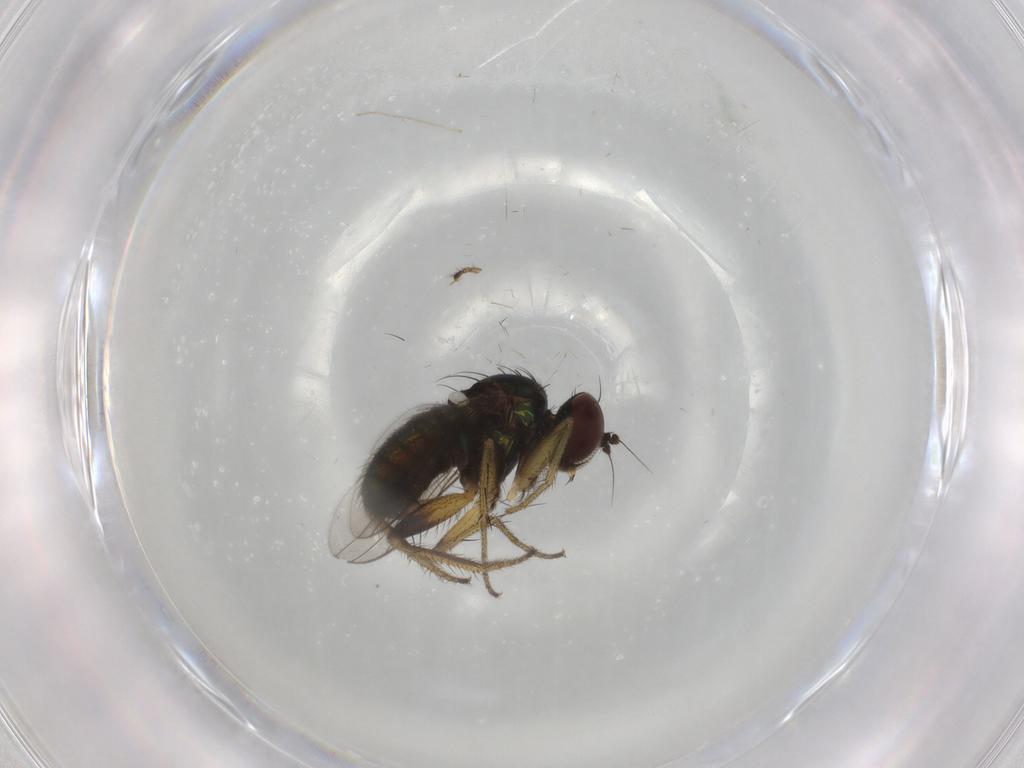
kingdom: Animalia
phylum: Arthropoda
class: Insecta
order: Diptera
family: Dolichopodidae
